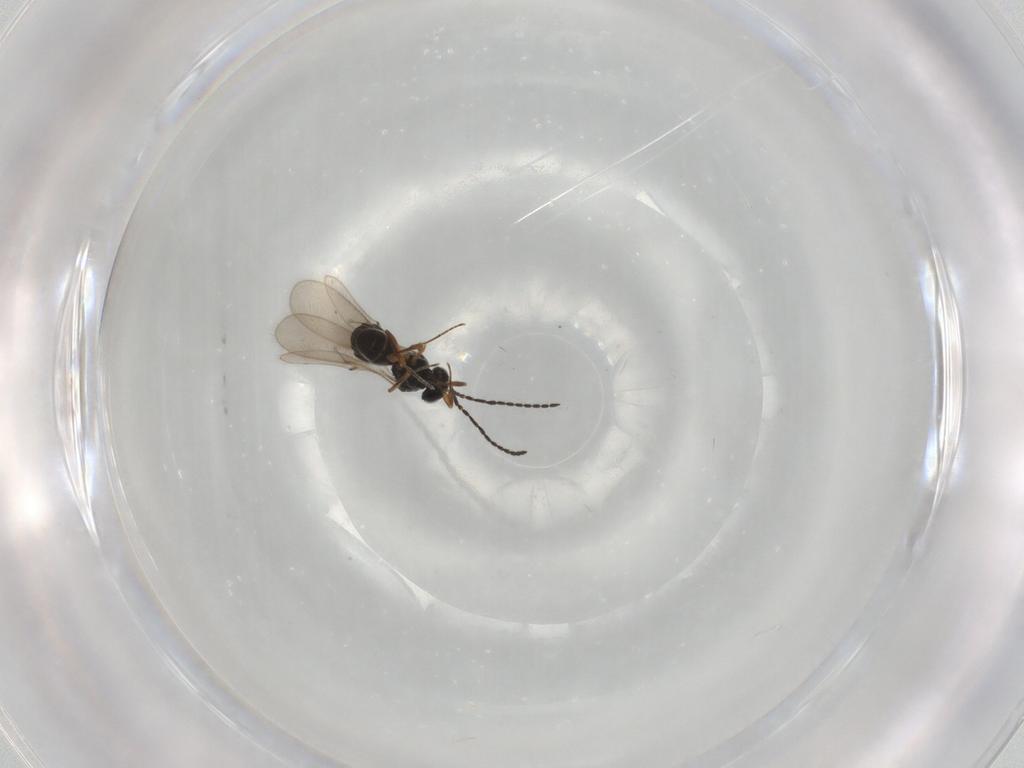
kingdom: Animalia
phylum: Arthropoda
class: Insecta
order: Hymenoptera
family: Scelionidae
